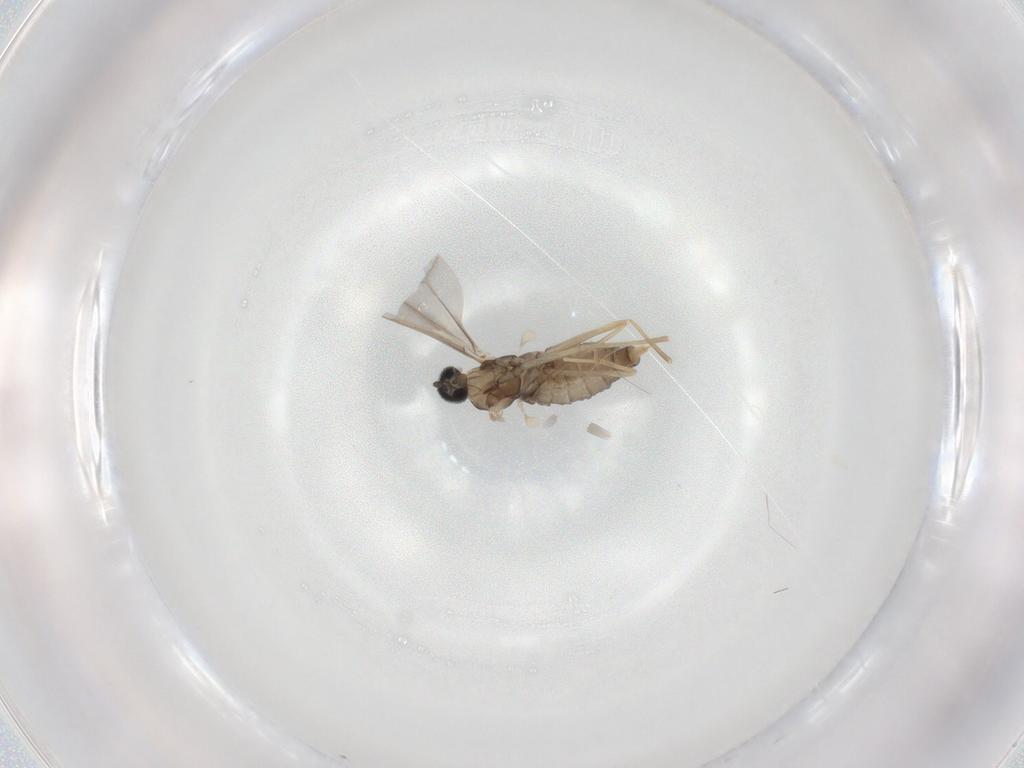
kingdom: Animalia
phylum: Arthropoda
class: Insecta
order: Diptera
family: Cecidomyiidae
